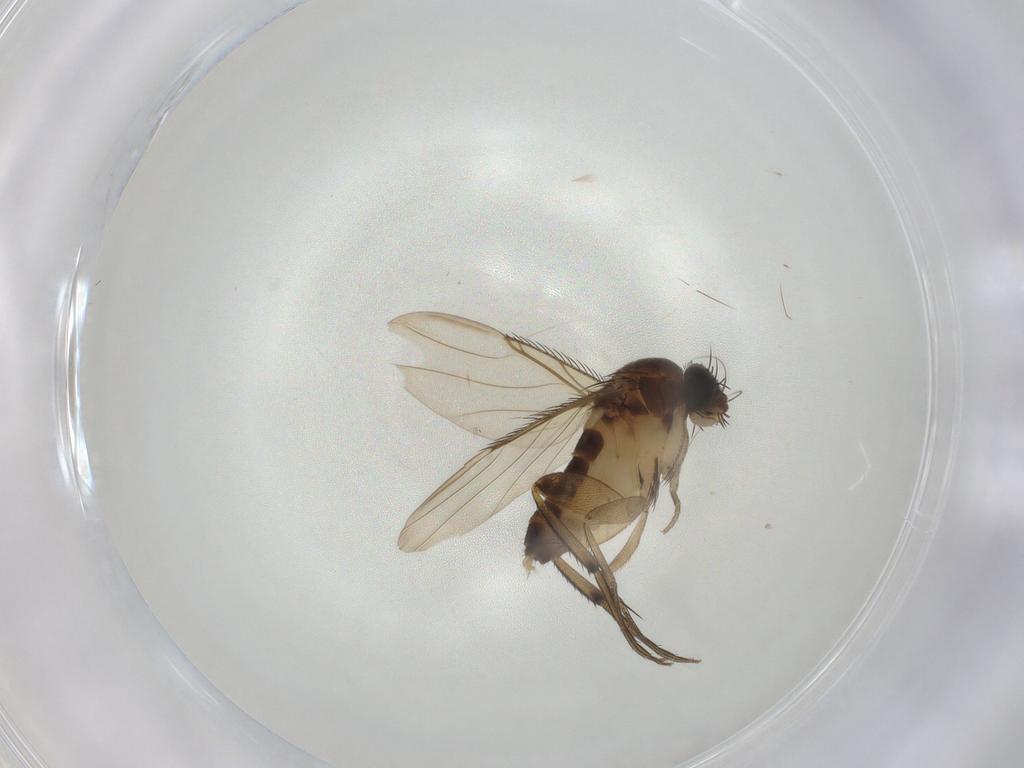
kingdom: Animalia
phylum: Arthropoda
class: Insecta
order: Diptera
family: Phoridae
